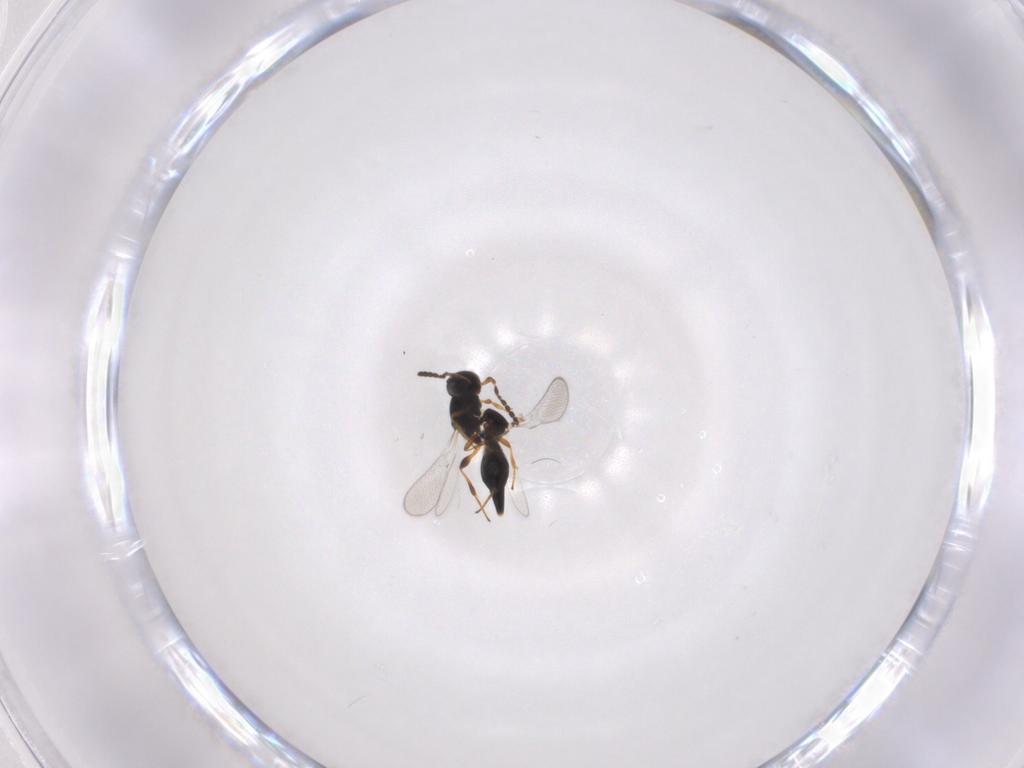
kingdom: Animalia
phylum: Arthropoda
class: Insecta
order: Hymenoptera
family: Platygastridae
